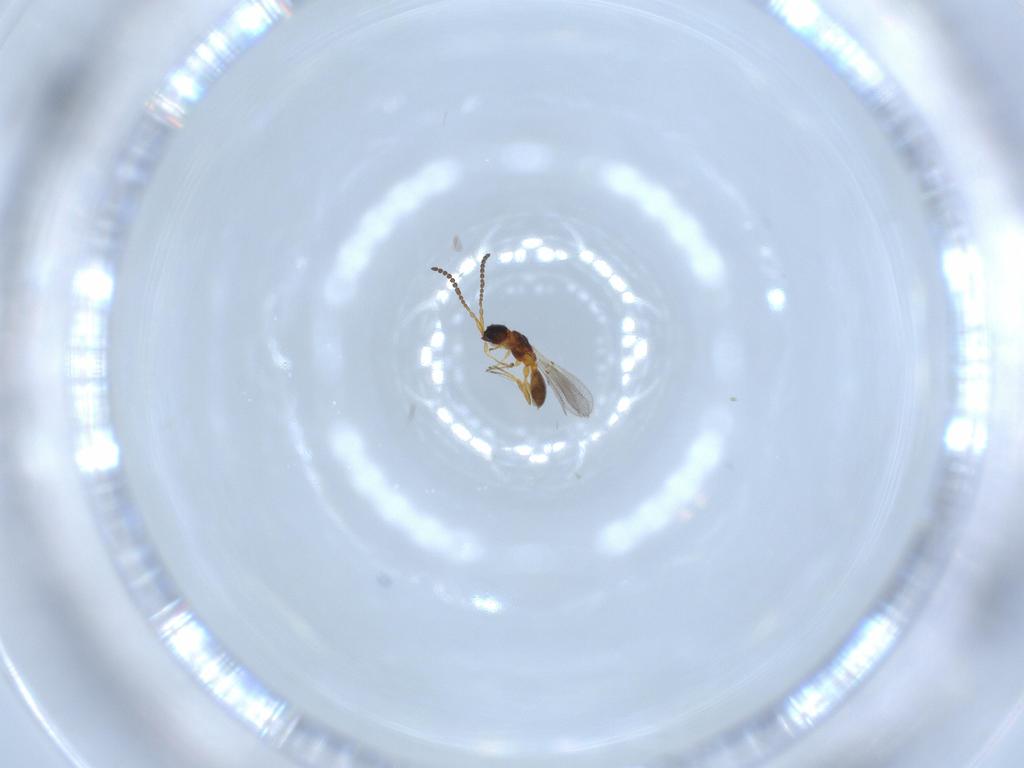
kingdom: Animalia
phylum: Arthropoda
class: Insecta
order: Hymenoptera
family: Diapriidae
